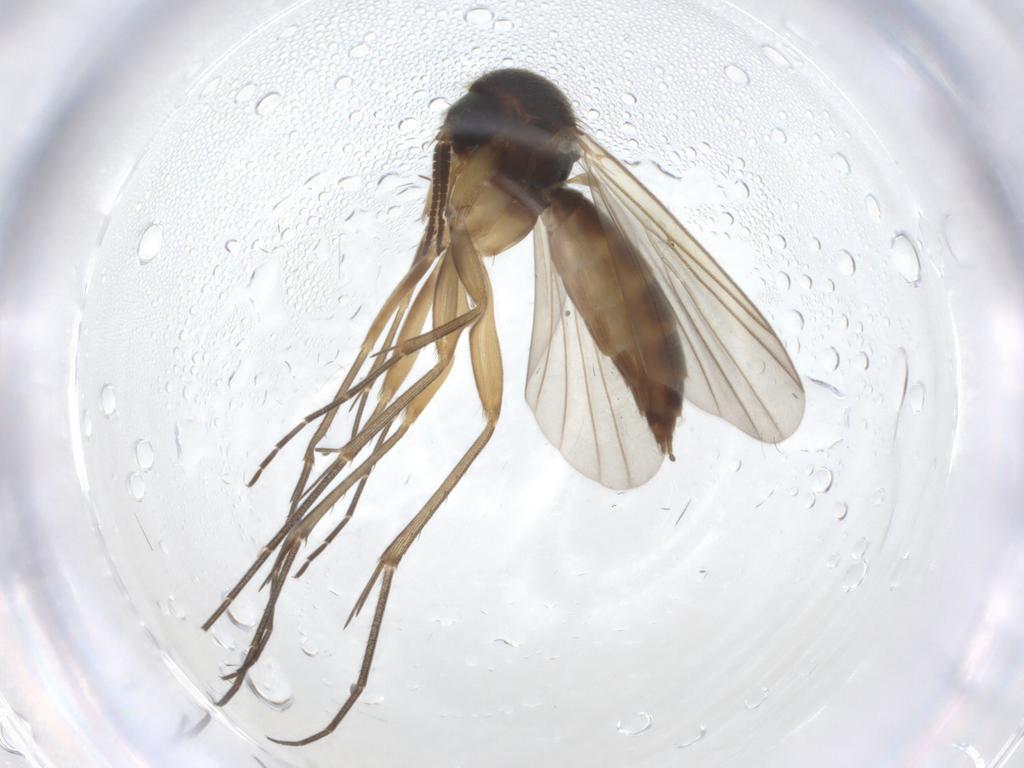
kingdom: Animalia
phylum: Arthropoda
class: Insecta
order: Diptera
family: Mycetophilidae
